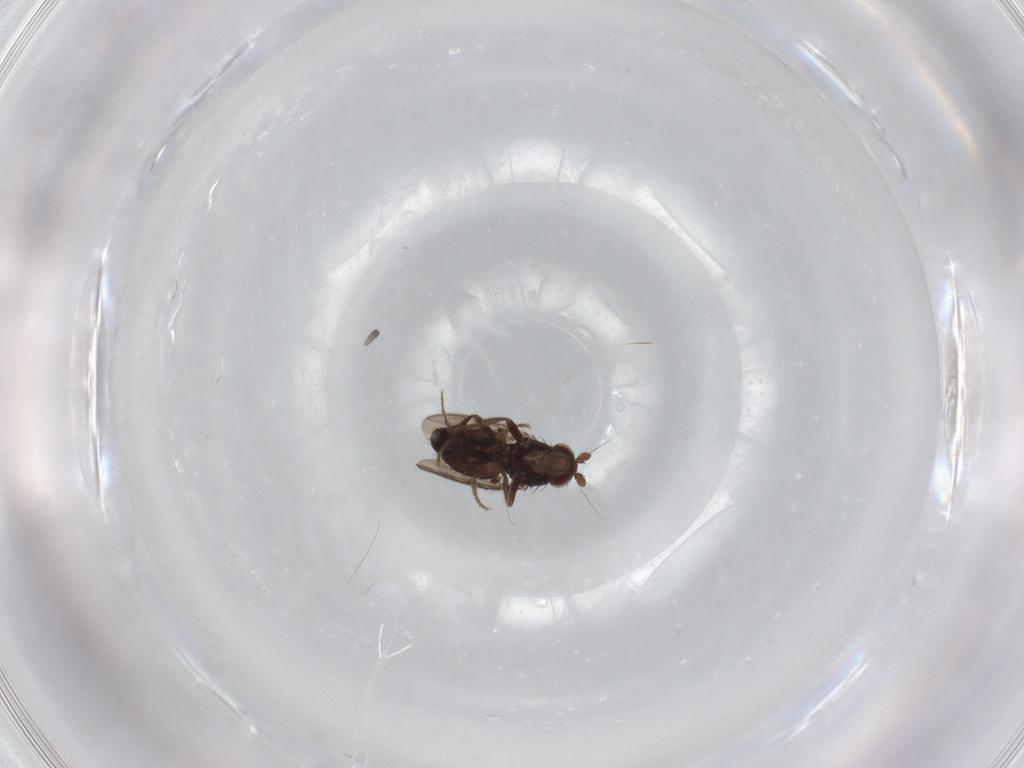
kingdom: Animalia
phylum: Arthropoda
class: Insecta
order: Diptera
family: Sphaeroceridae
